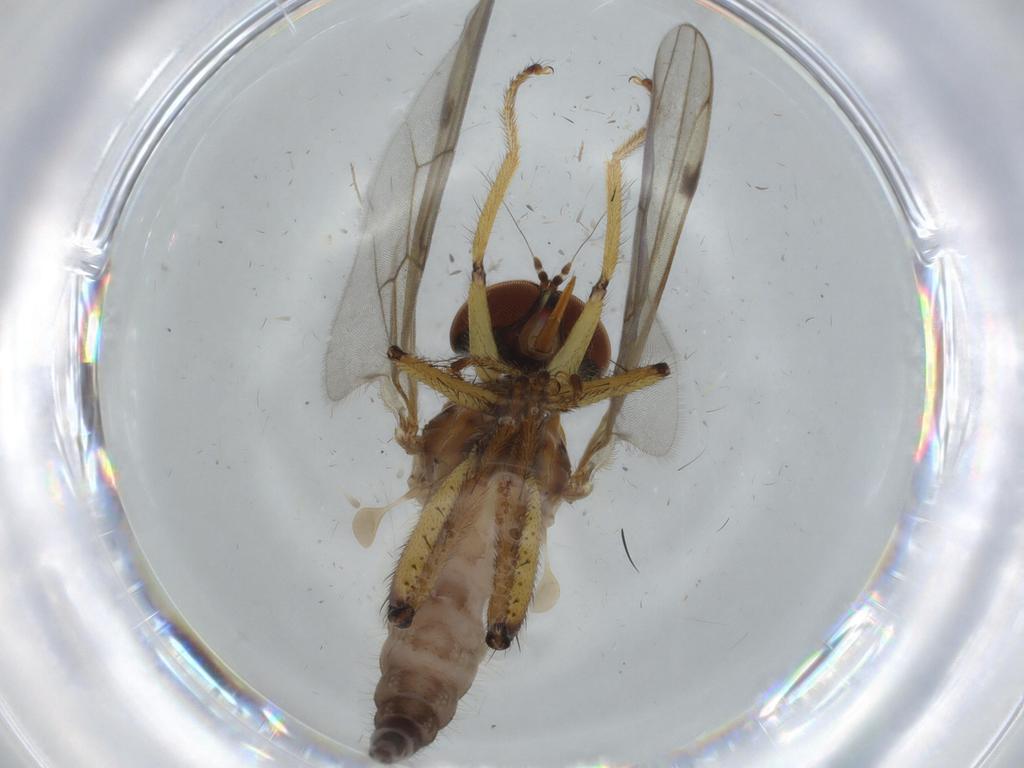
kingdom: Animalia
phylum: Arthropoda
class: Insecta
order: Diptera
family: Hybotidae
